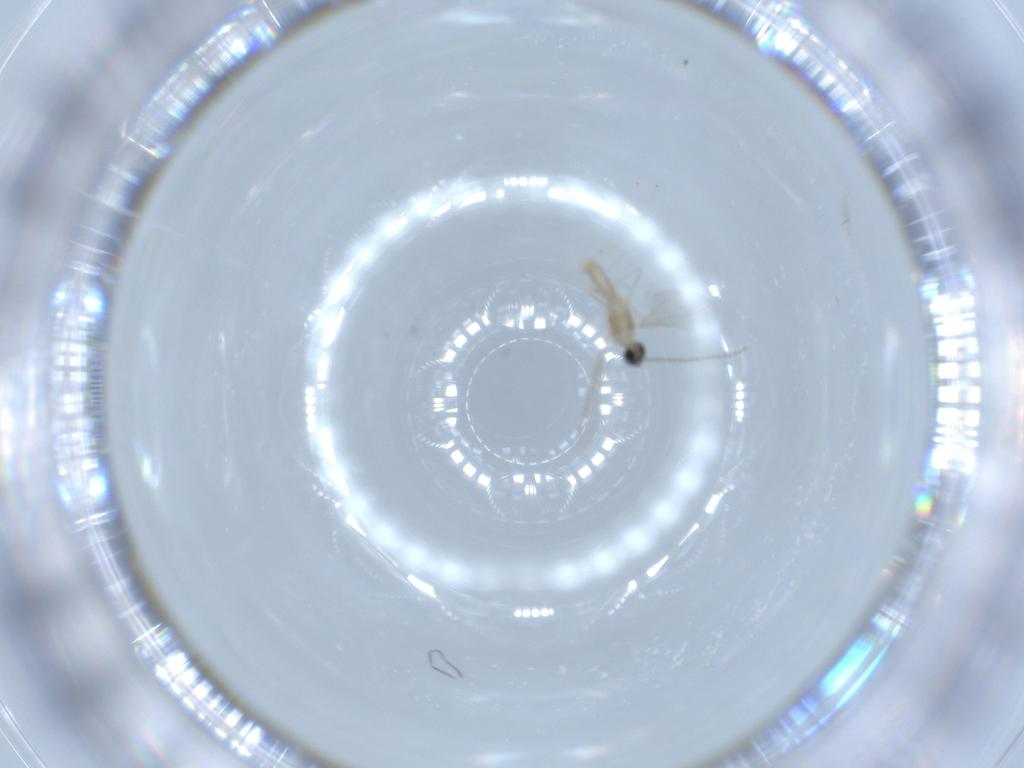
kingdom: Animalia
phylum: Arthropoda
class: Insecta
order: Diptera
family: Cecidomyiidae
